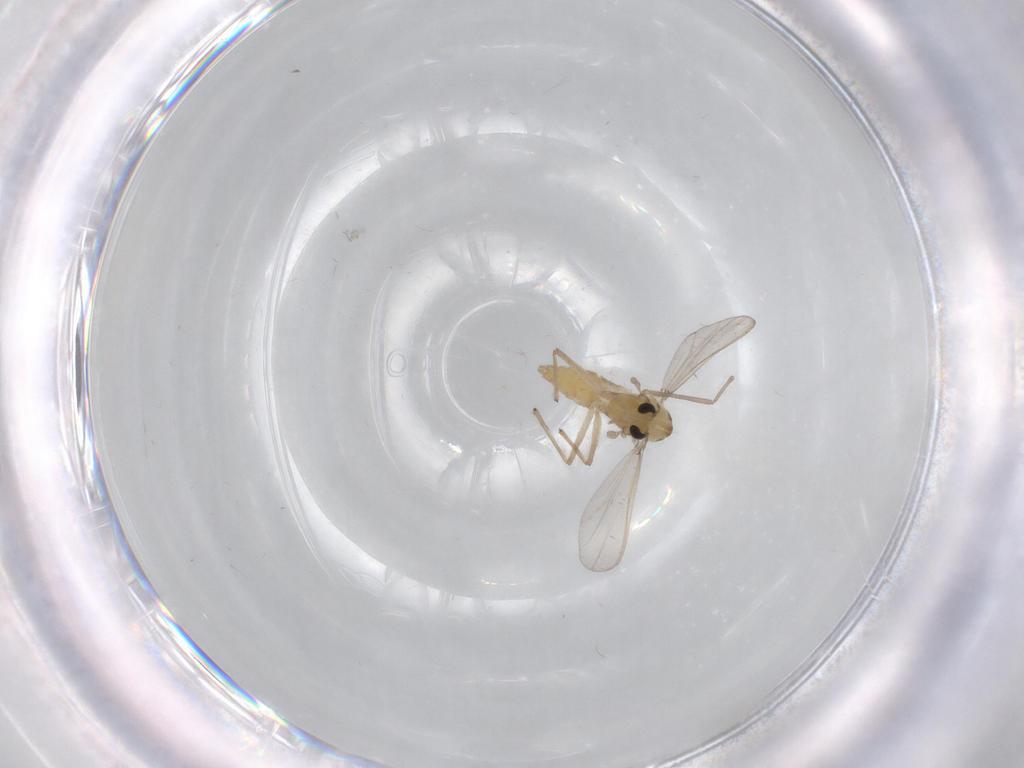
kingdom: Animalia
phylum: Arthropoda
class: Insecta
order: Diptera
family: Chironomidae
